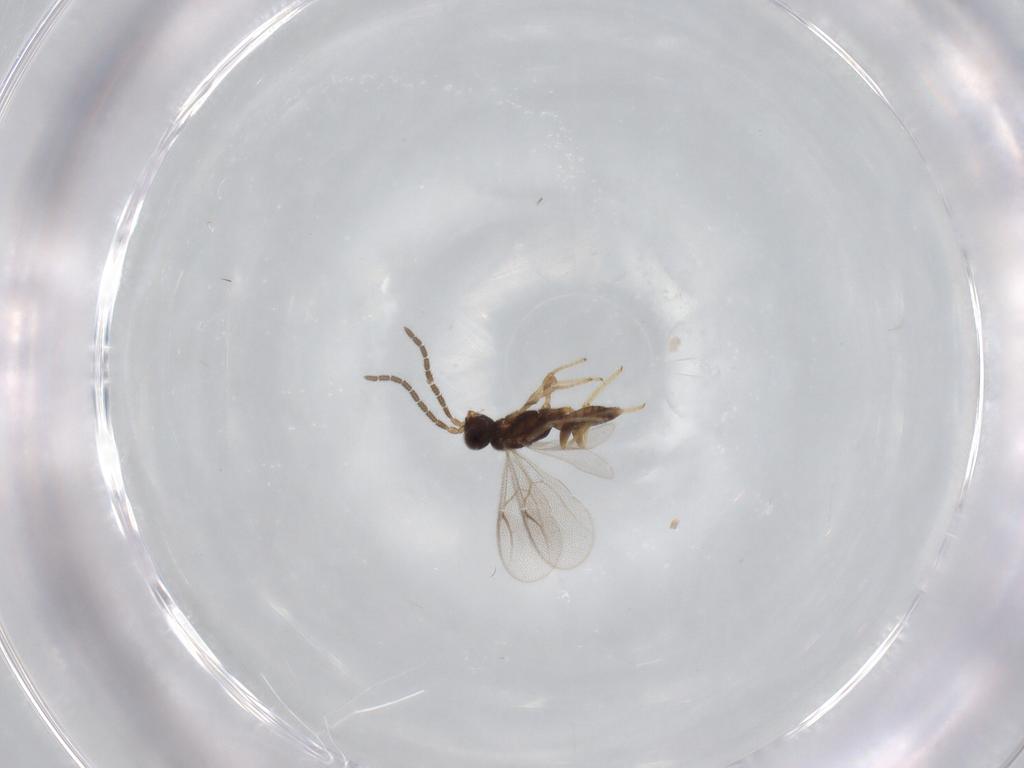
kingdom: Animalia
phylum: Arthropoda
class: Insecta
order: Hymenoptera
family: Dryinidae
